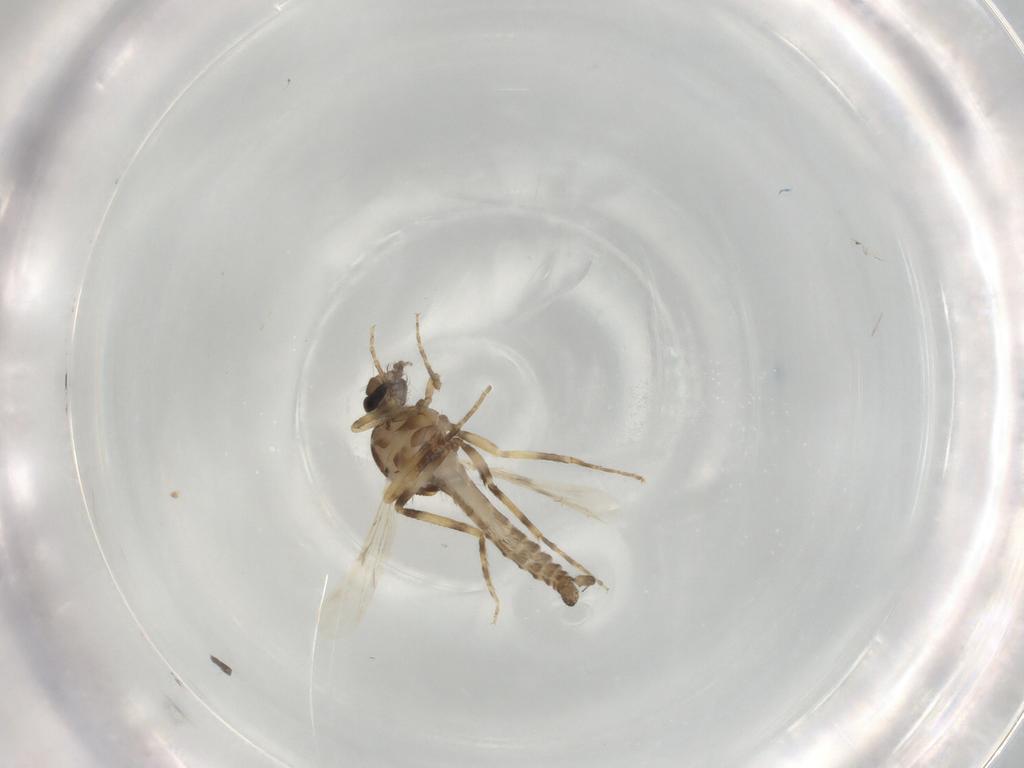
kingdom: Animalia
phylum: Arthropoda
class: Insecta
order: Diptera
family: Ceratopogonidae
